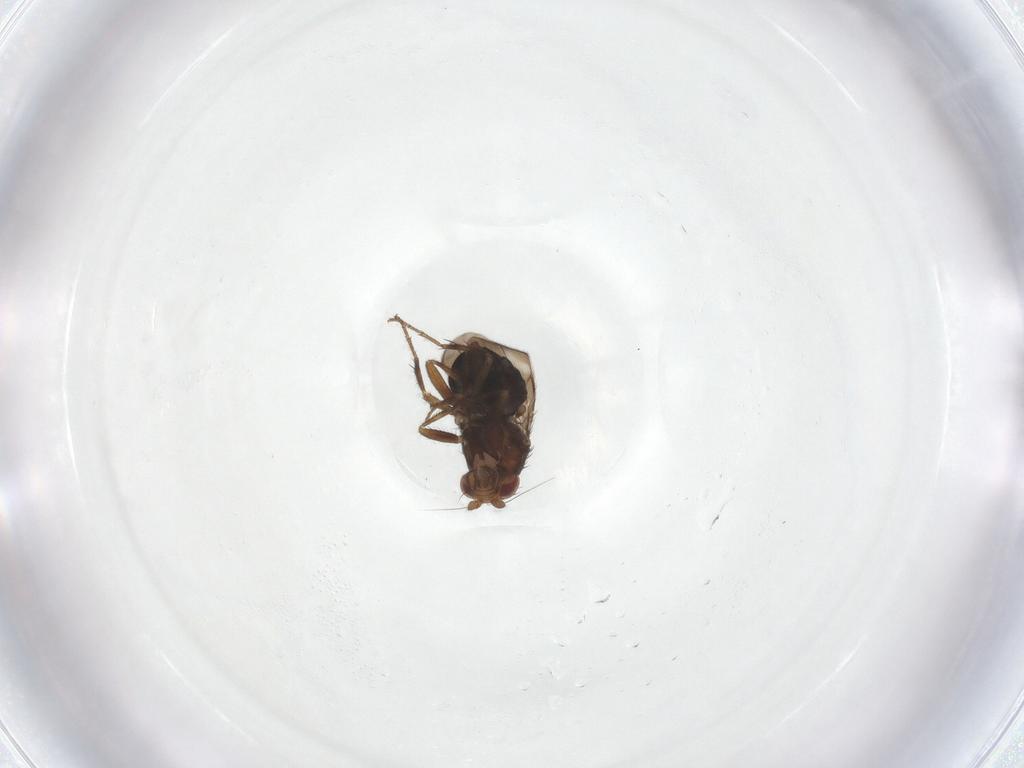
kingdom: Animalia
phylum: Arthropoda
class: Insecta
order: Diptera
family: Sphaeroceridae
